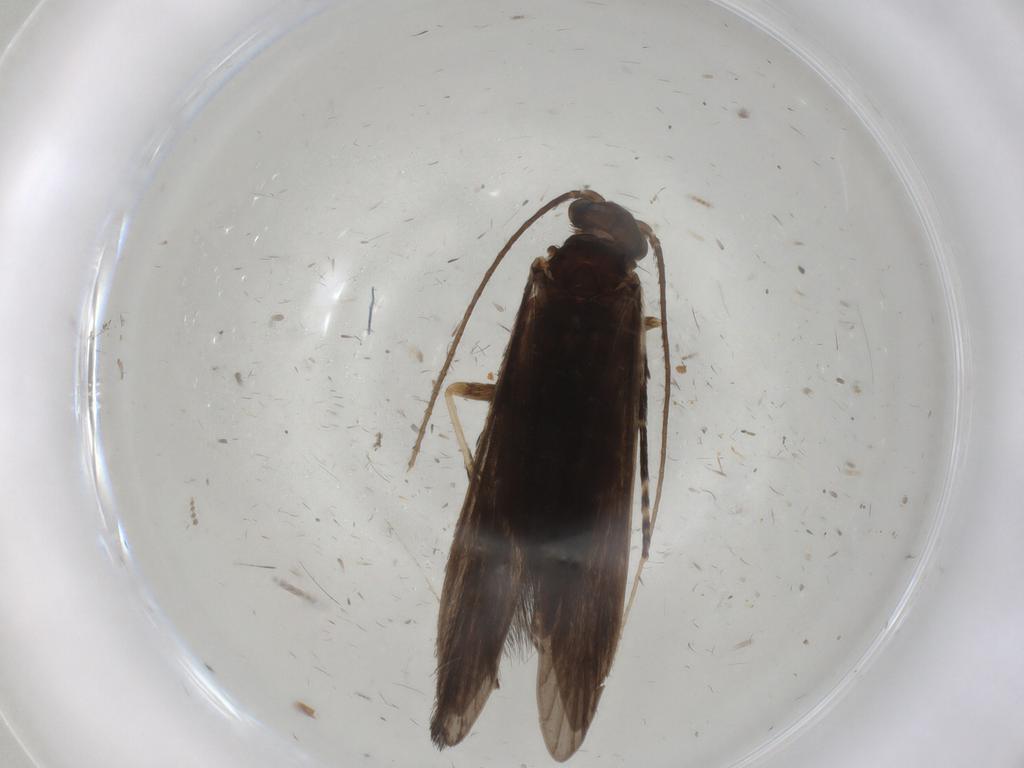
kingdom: Animalia
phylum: Arthropoda
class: Insecta
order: Trichoptera
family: Xiphocentronidae
